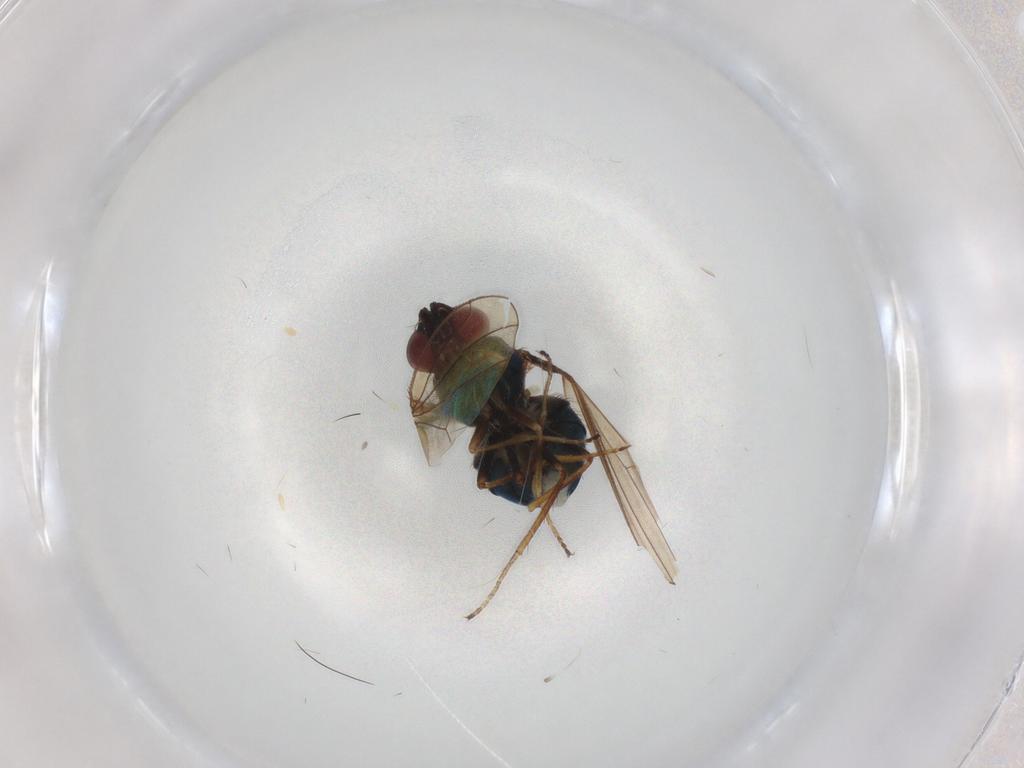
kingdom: Animalia
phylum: Arthropoda
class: Insecta
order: Diptera
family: Ephydridae
